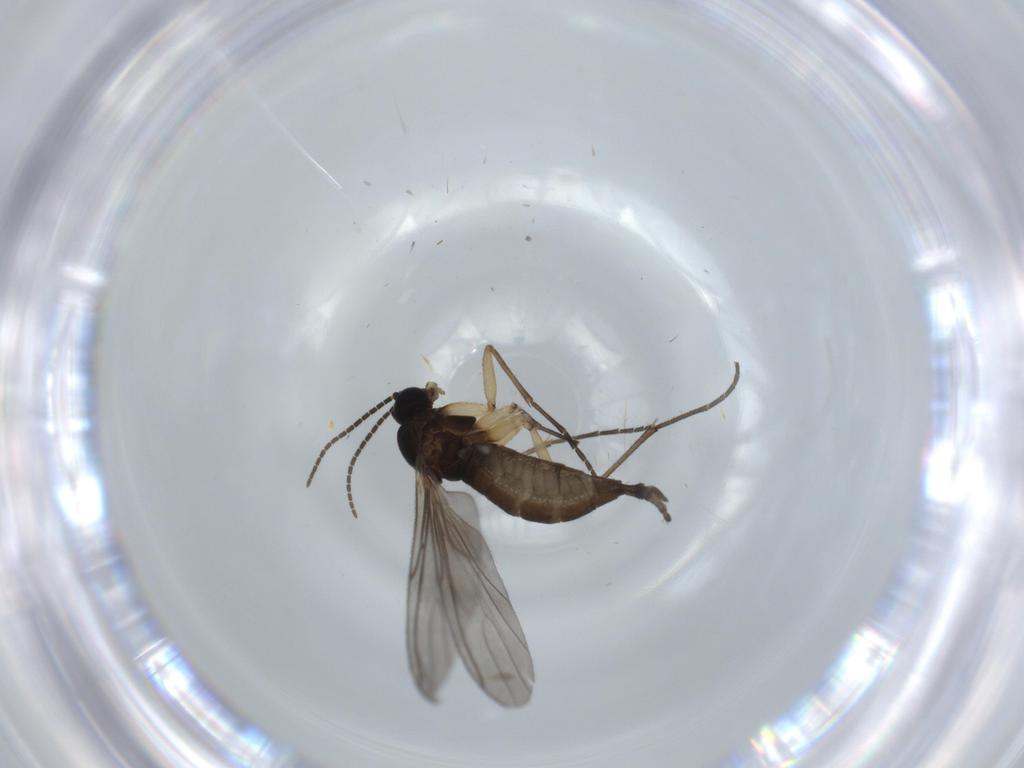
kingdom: Animalia
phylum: Arthropoda
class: Insecta
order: Diptera
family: Sciaridae
